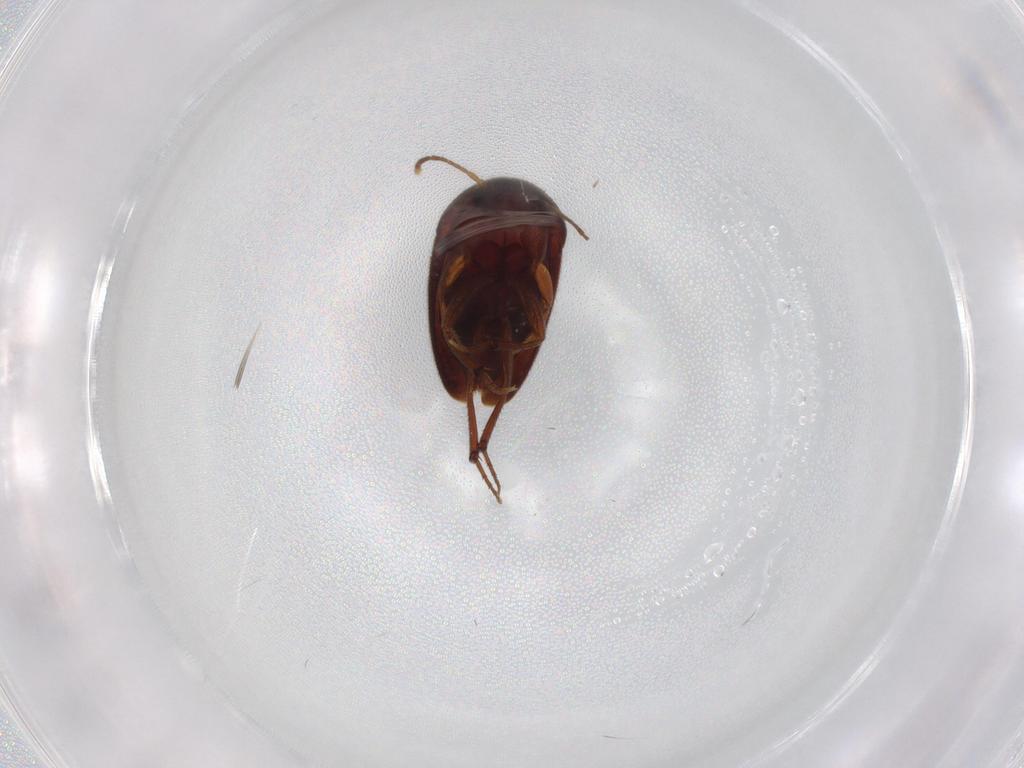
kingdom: Animalia
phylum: Arthropoda
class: Insecta
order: Coleoptera
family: Leiodidae
